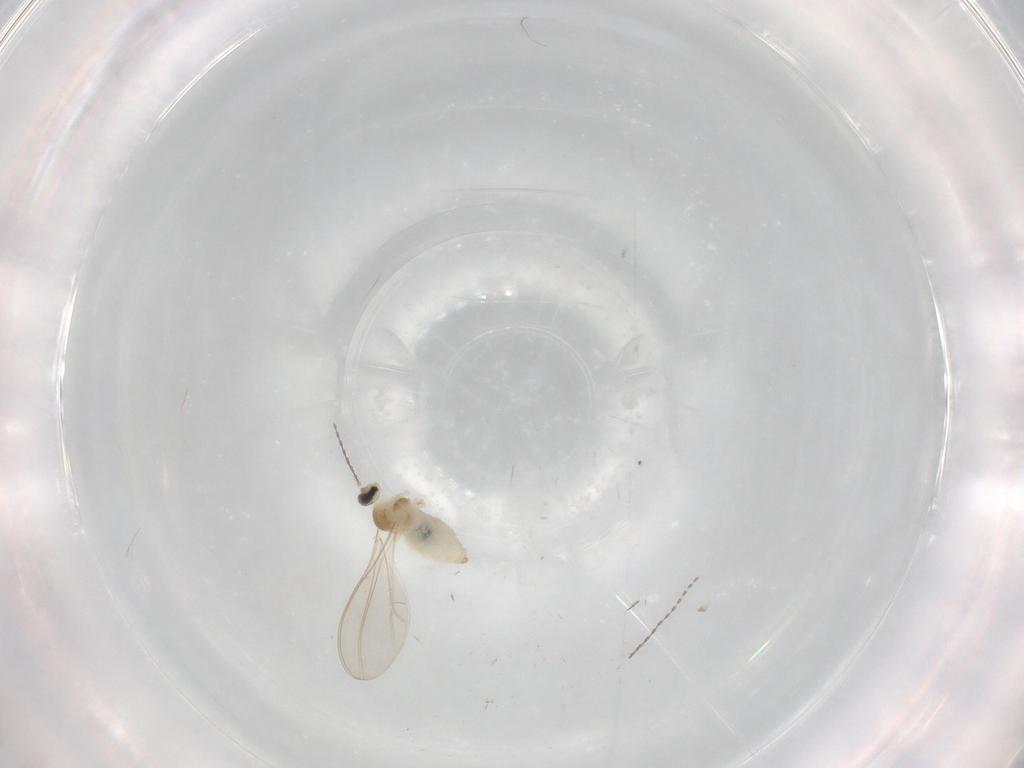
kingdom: Animalia
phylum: Arthropoda
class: Insecta
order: Diptera
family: Cecidomyiidae
